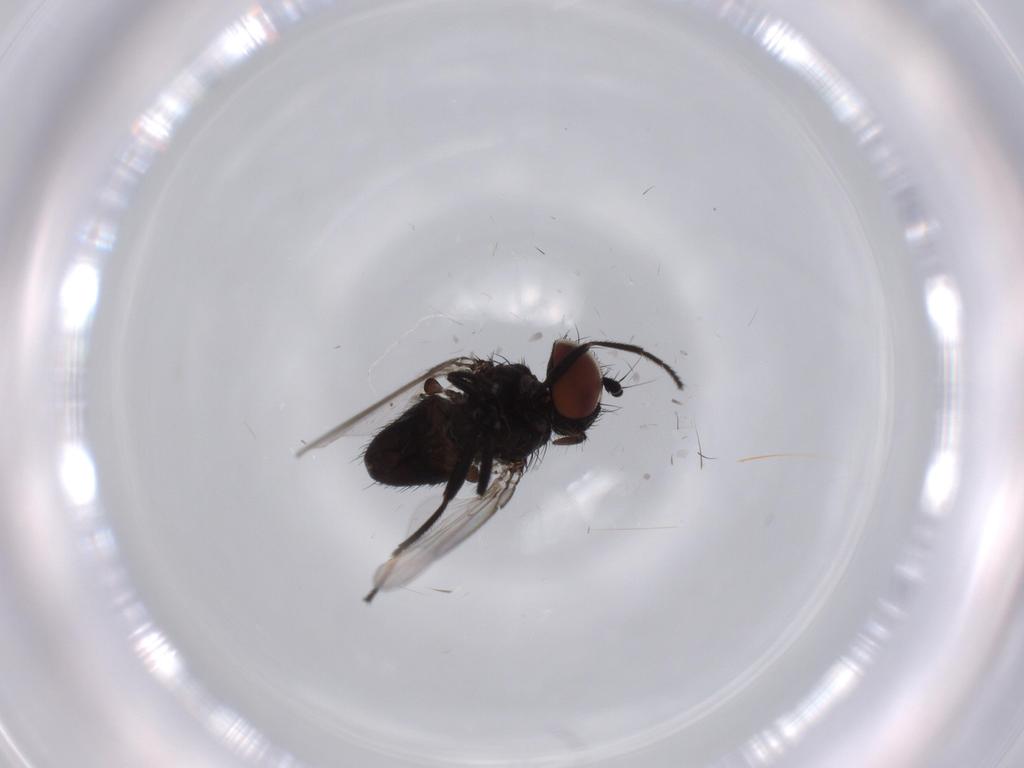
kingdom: Animalia
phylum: Arthropoda
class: Insecta
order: Diptera
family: Milichiidae
